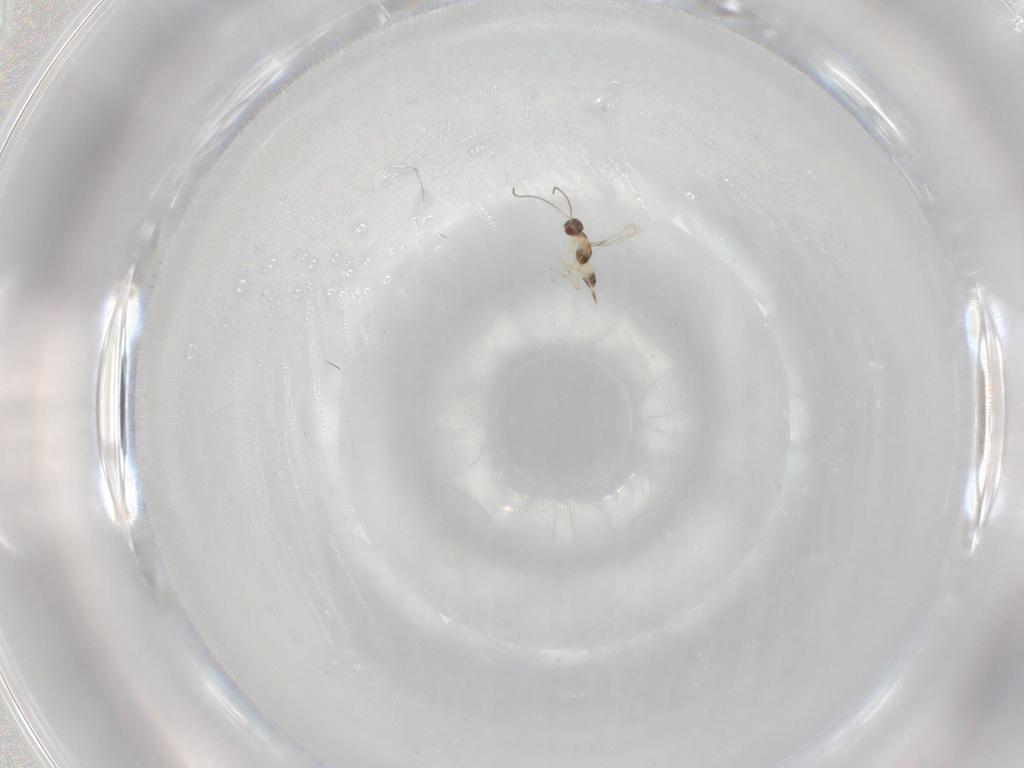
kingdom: Animalia
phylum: Arthropoda
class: Insecta
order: Hymenoptera
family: Mymaridae
